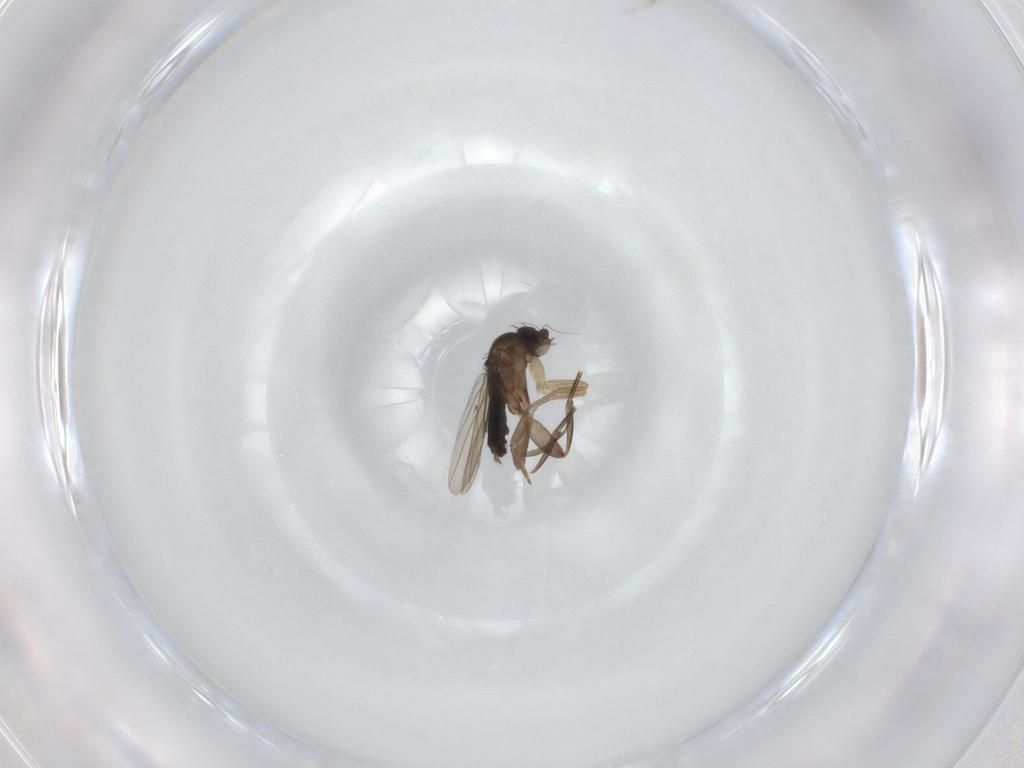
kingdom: Animalia
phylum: Arthropoda
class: Insecta
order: Diptera
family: Phoridae
